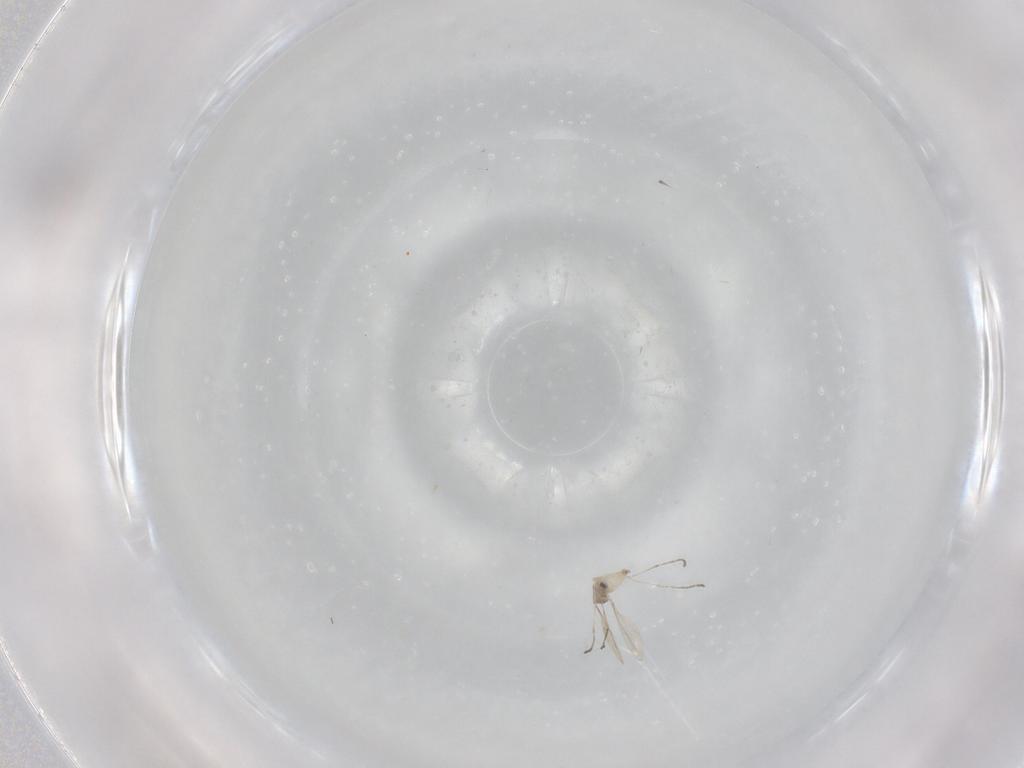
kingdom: Animalia
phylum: Arthropoda
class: Insecta
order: Diptera
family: Cecidomyiidae
